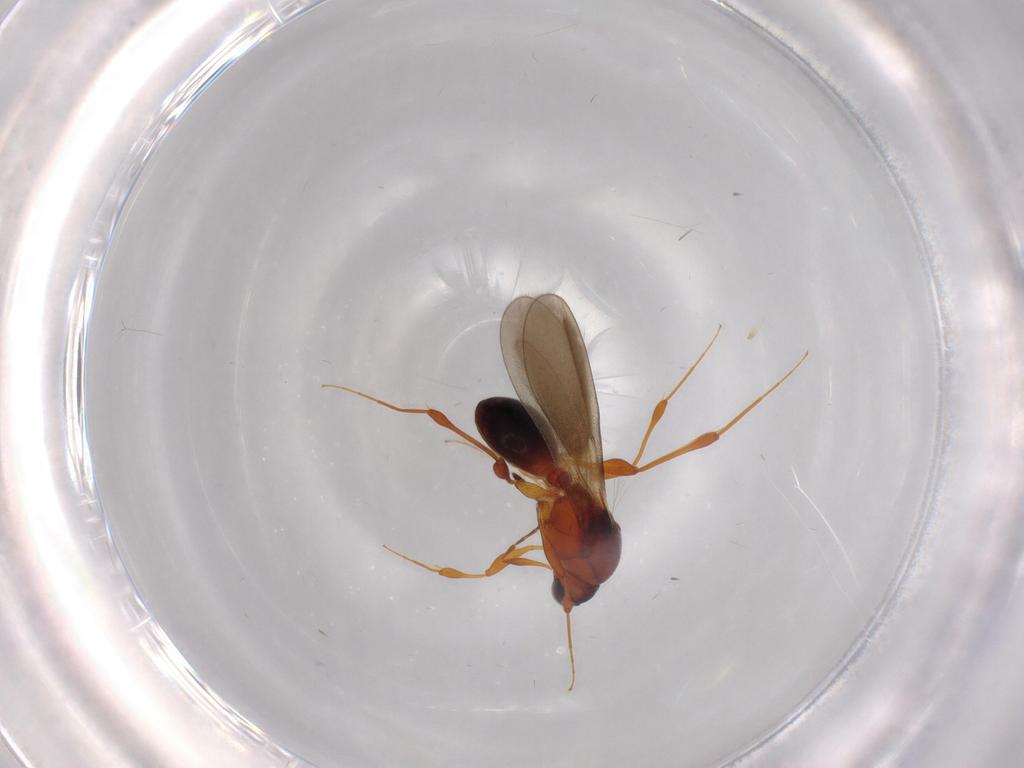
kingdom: Animalia
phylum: Arthropoda
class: Insecta
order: Hymenoptera
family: Platygastridae
